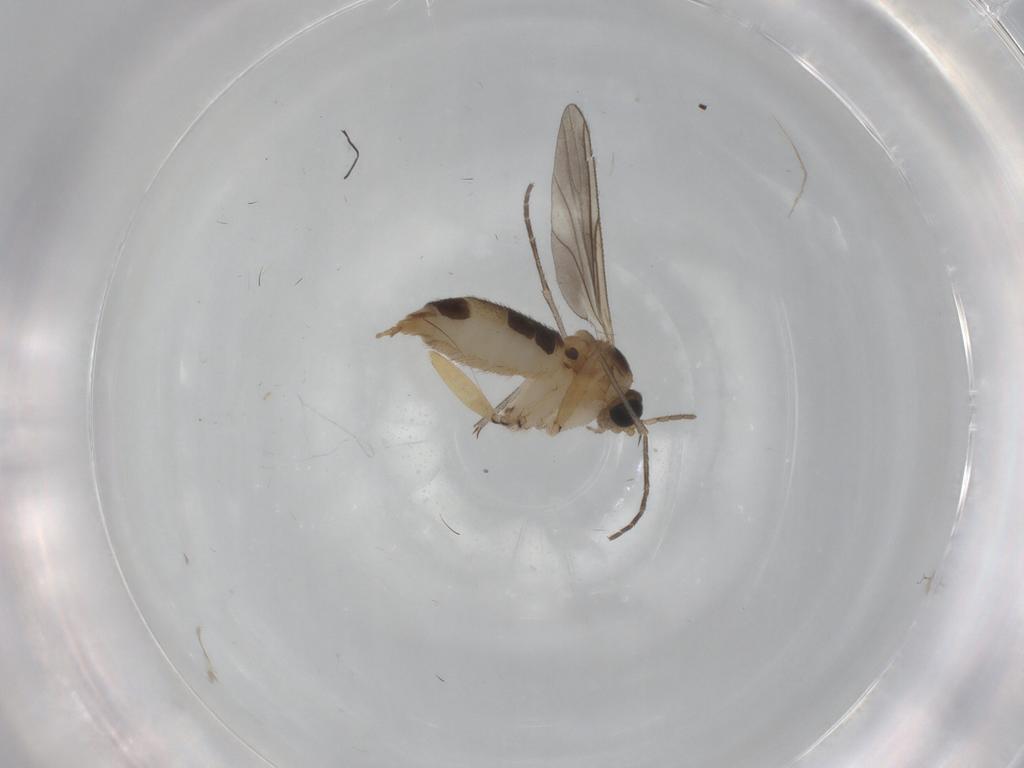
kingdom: Animalia
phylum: Arthropoda
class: Insecta
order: Diptera
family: Sciaridae
